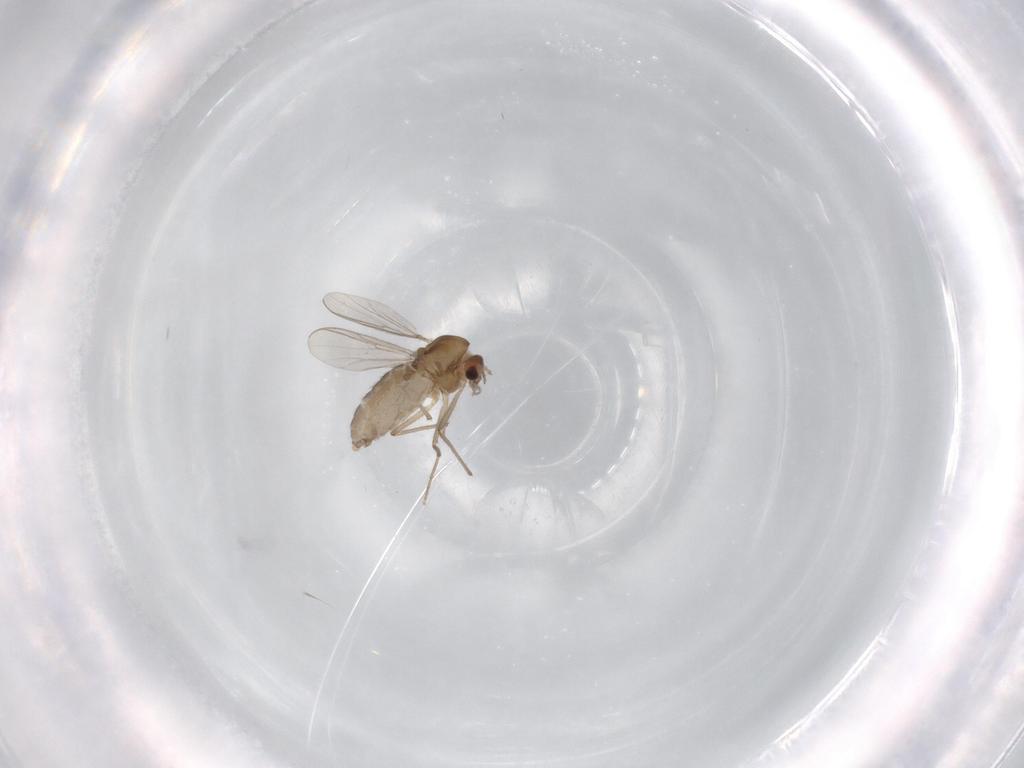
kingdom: Animalia
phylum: Arthropoda
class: Insecta
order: Diptera
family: Chironomidae
